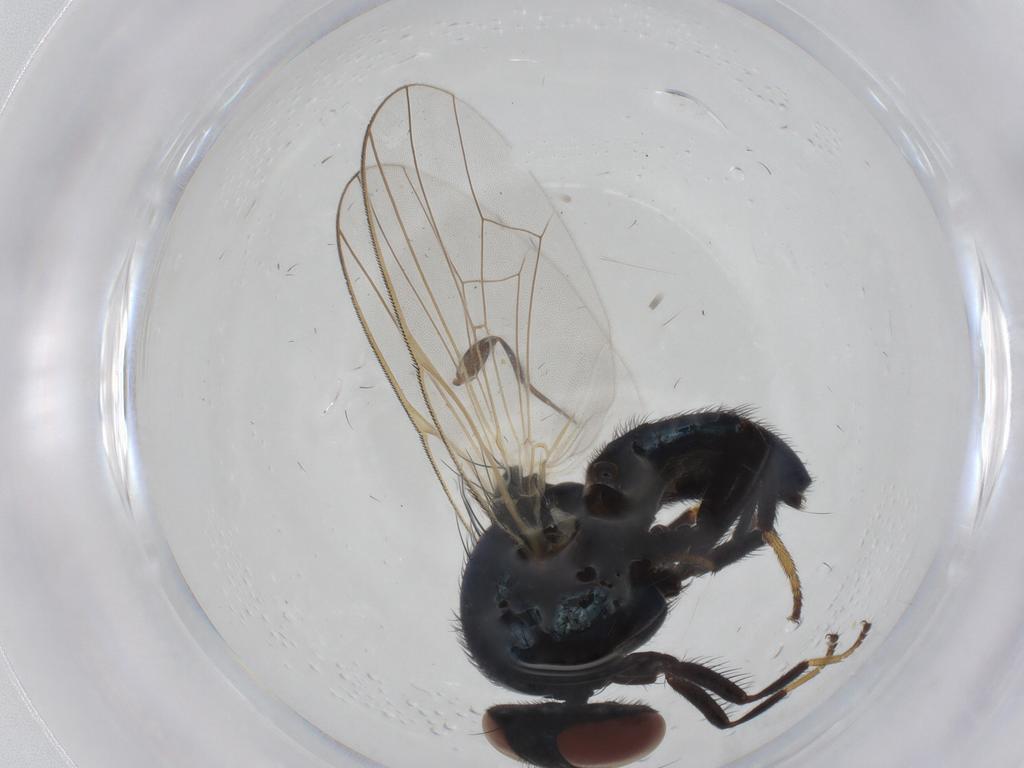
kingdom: Animalia
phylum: Arthropoda
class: Insecta
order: Diptera
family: Lonchaeidae
